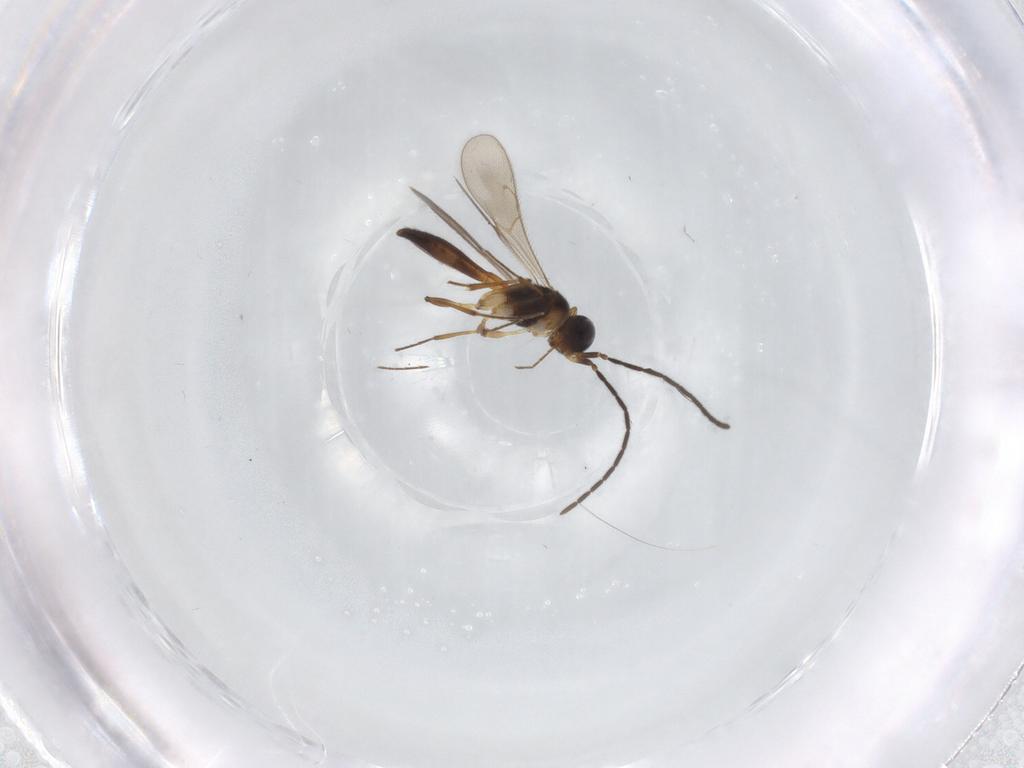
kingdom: Animalia
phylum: Arthropoda
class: Insecta
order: Hymenoptera
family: Scelionidae
